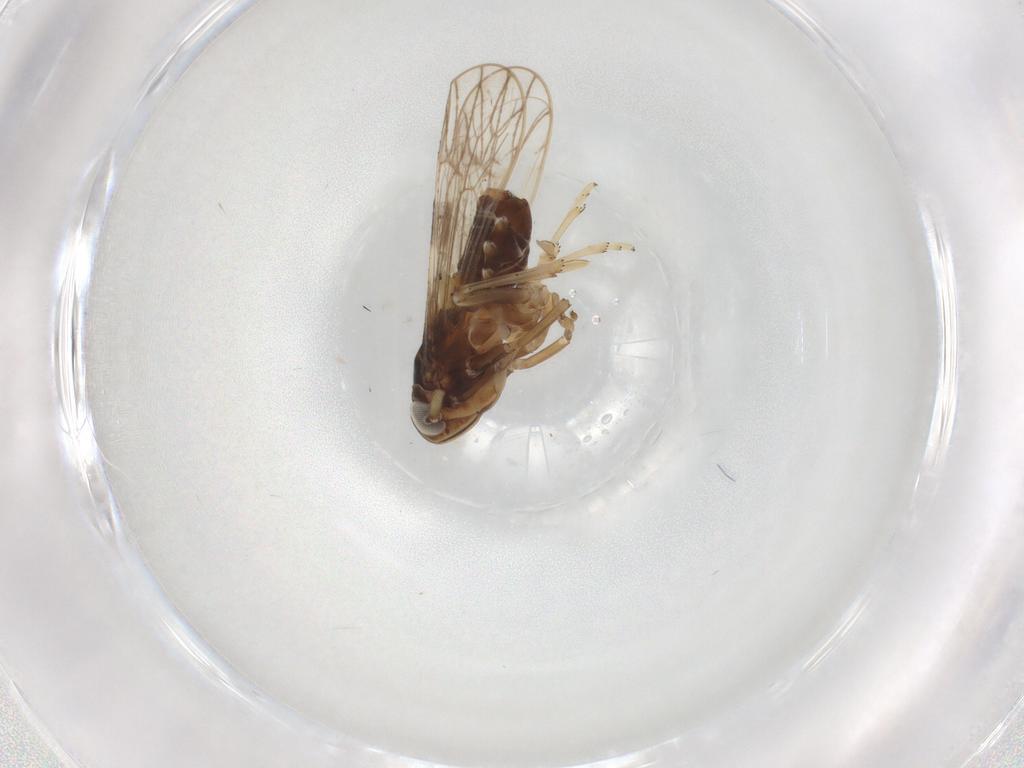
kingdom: Animalia
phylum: Arthropoda
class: Insecta
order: Hemiptera
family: Delphacidae
